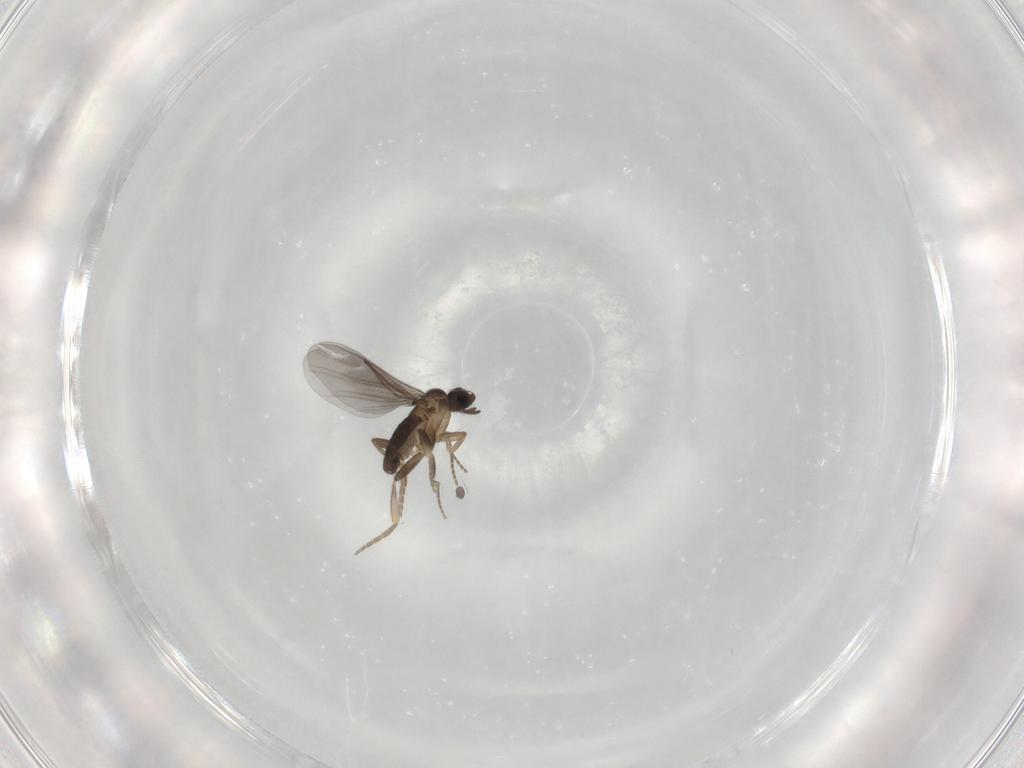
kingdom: Animalia
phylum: Arthropoda
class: Insecta
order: Diptera
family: Chironomidae
